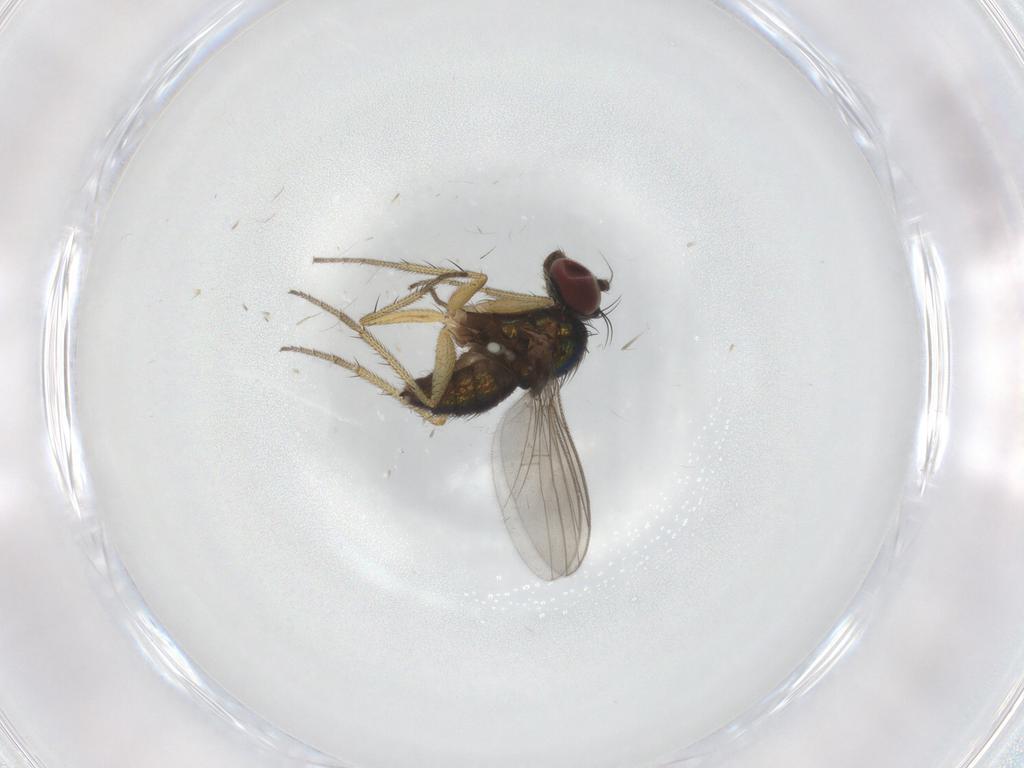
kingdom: Animalia
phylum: Arthropoda
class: Insecta
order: Diptera
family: Dolichopodidae
